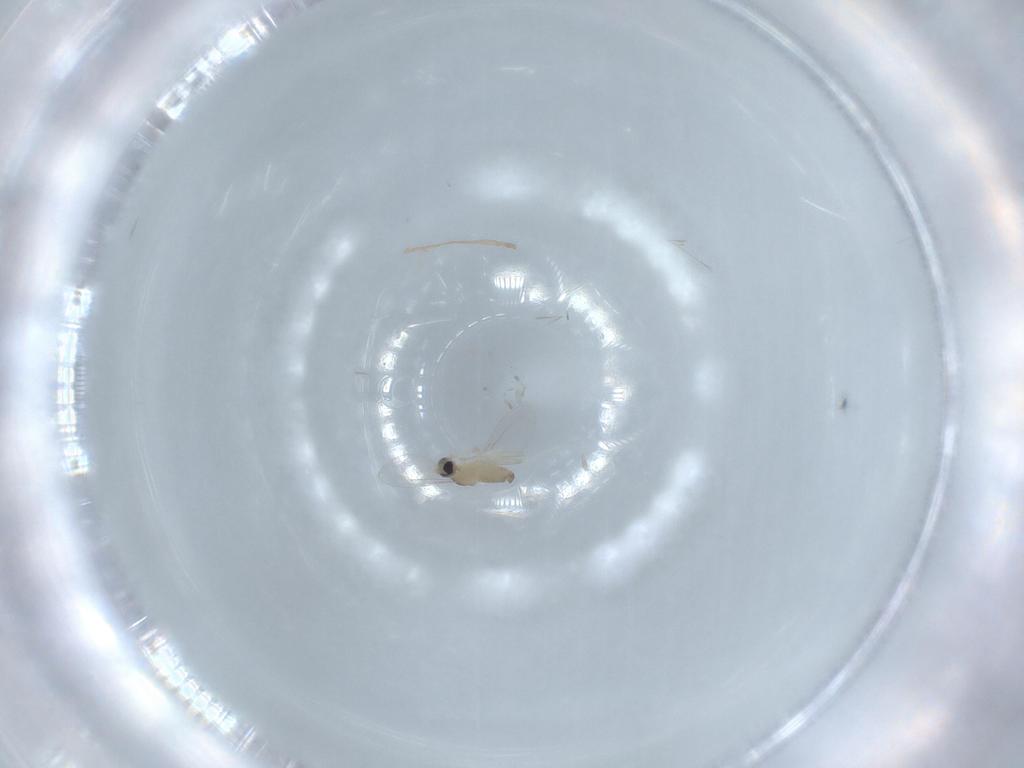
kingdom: Animalia
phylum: Arthropoda
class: Insecta
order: Diptera
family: Cecidomyiidae
